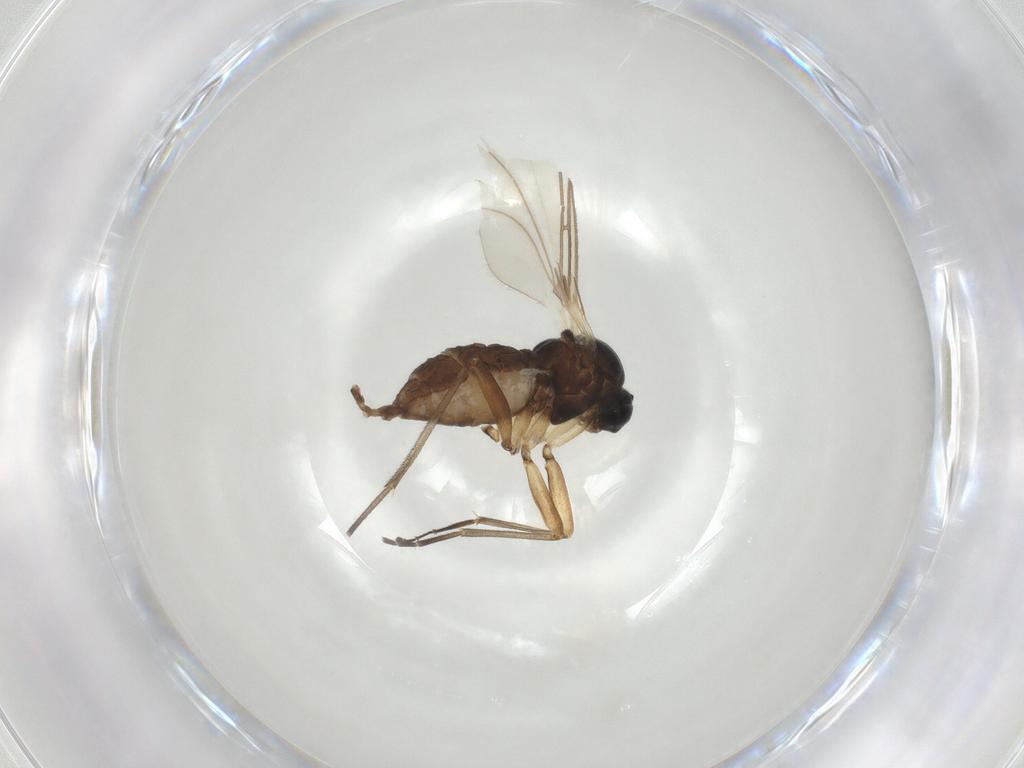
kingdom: Animalia
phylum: Arthropoda
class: Insecta
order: Diptera
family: Sciaridae
